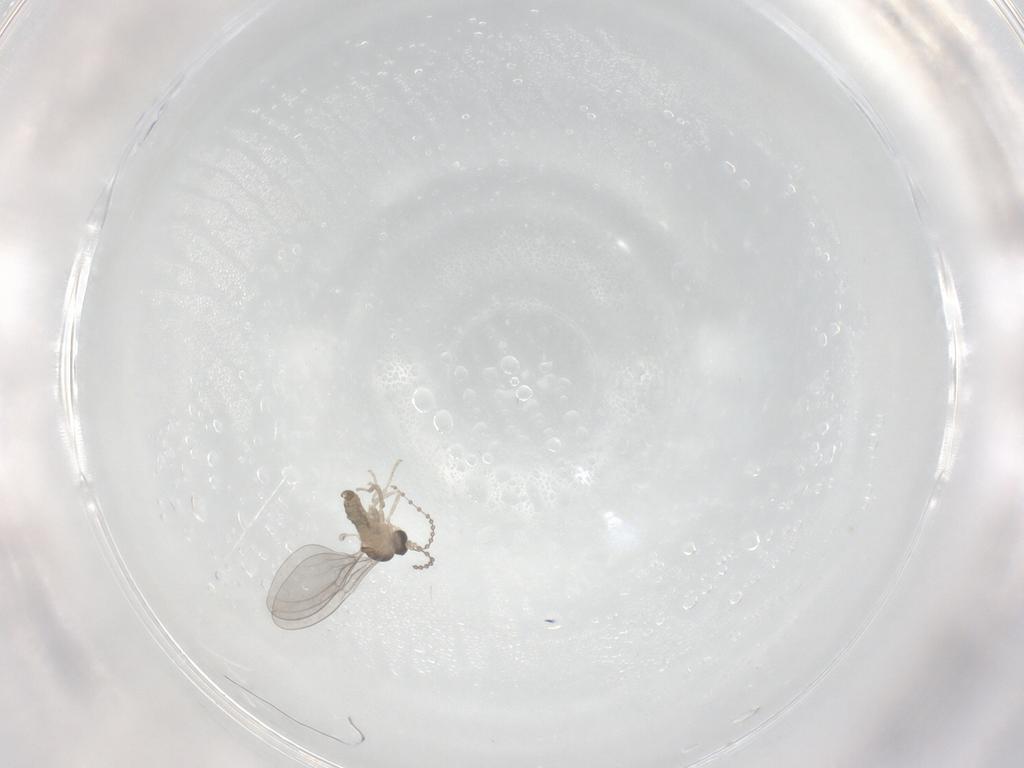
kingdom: Animalia
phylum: Arthropoda
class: Insecta
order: Diptera
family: Cecidomyiidae
